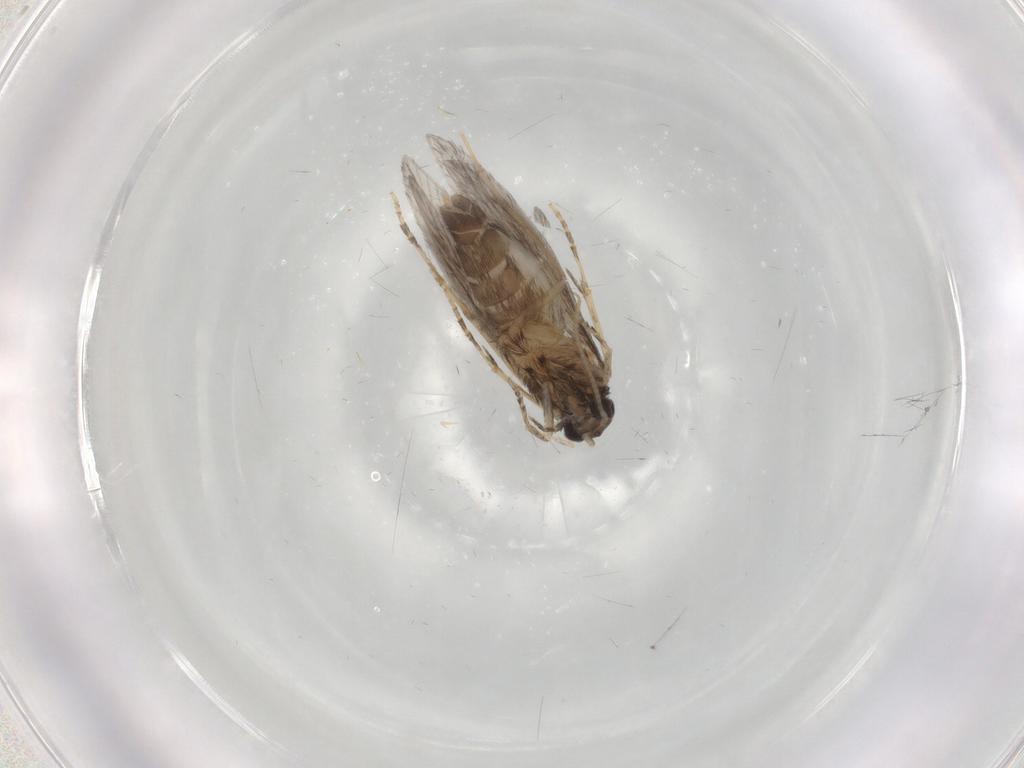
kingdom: Animalia
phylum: Arthropoda
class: Insecta
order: Trichoptera
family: Hydroptilidae
